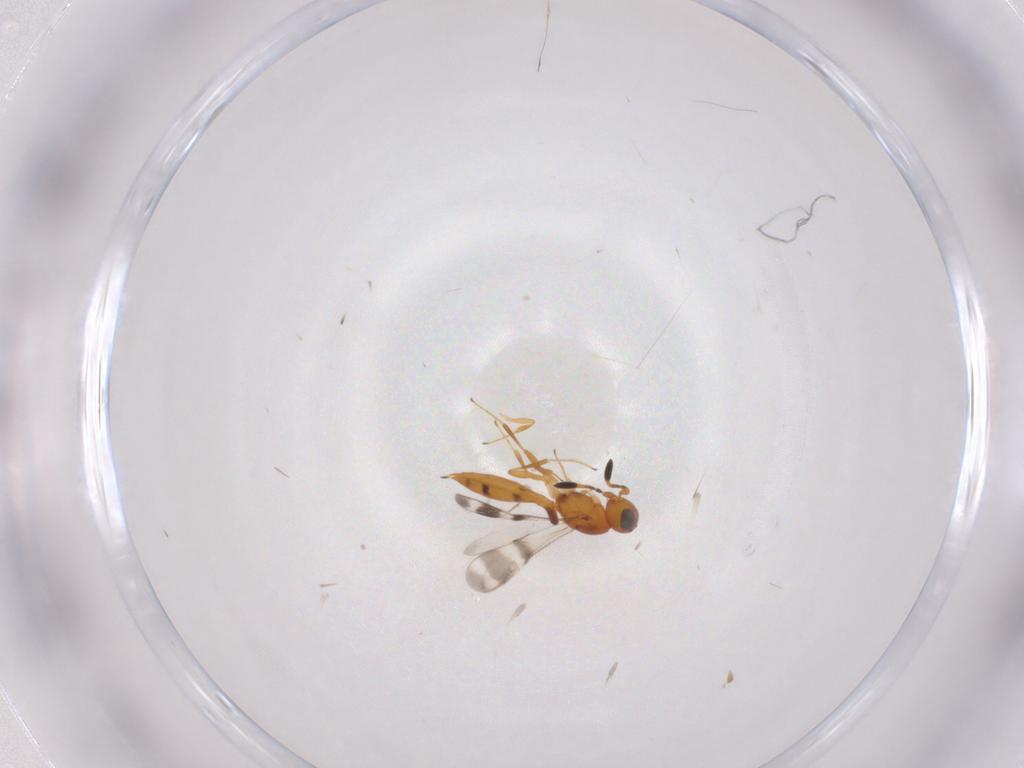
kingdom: Animalia
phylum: Arthropoda
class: Insecta
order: Hymenoptera
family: Scelionidae
